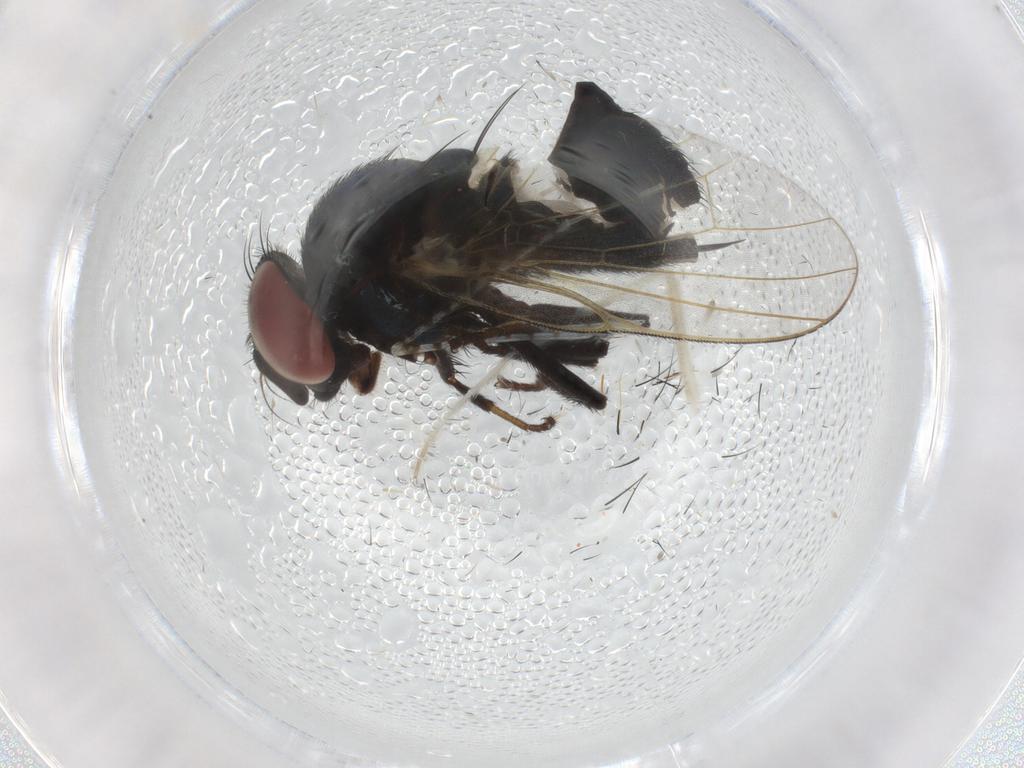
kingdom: Animalia
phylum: Arthropoda
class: Insecta
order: Diptera
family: Lonchaeidae
